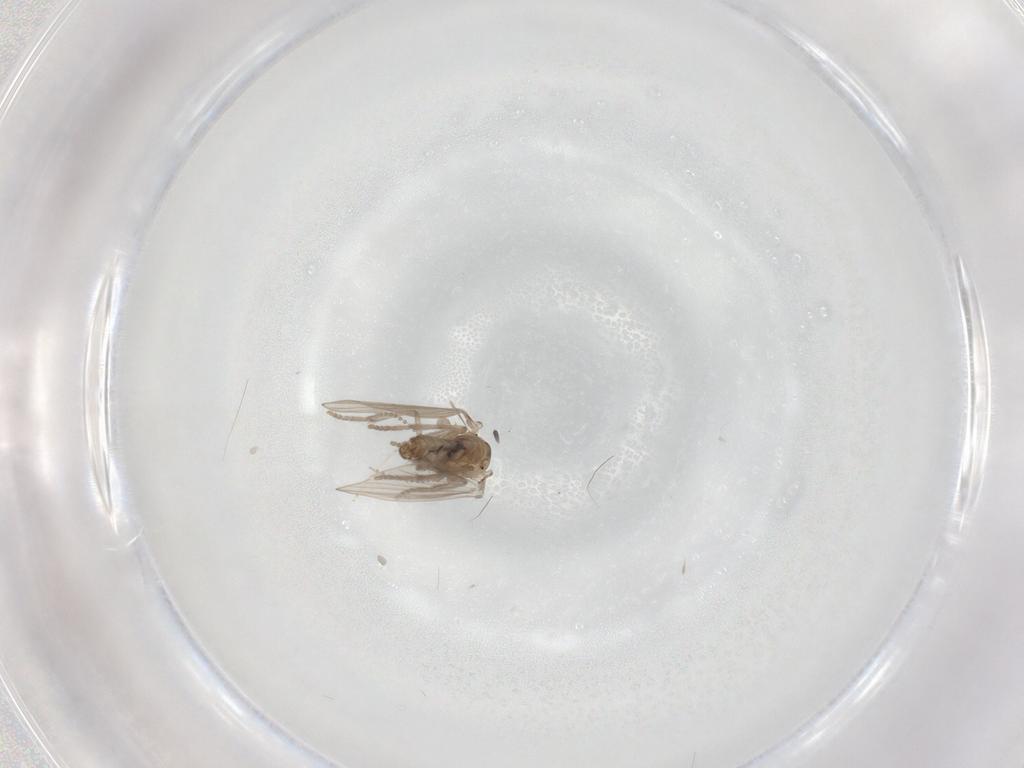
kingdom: Animalia
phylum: Arthropoda
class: Insecta
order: Diptera
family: Psychodidae
